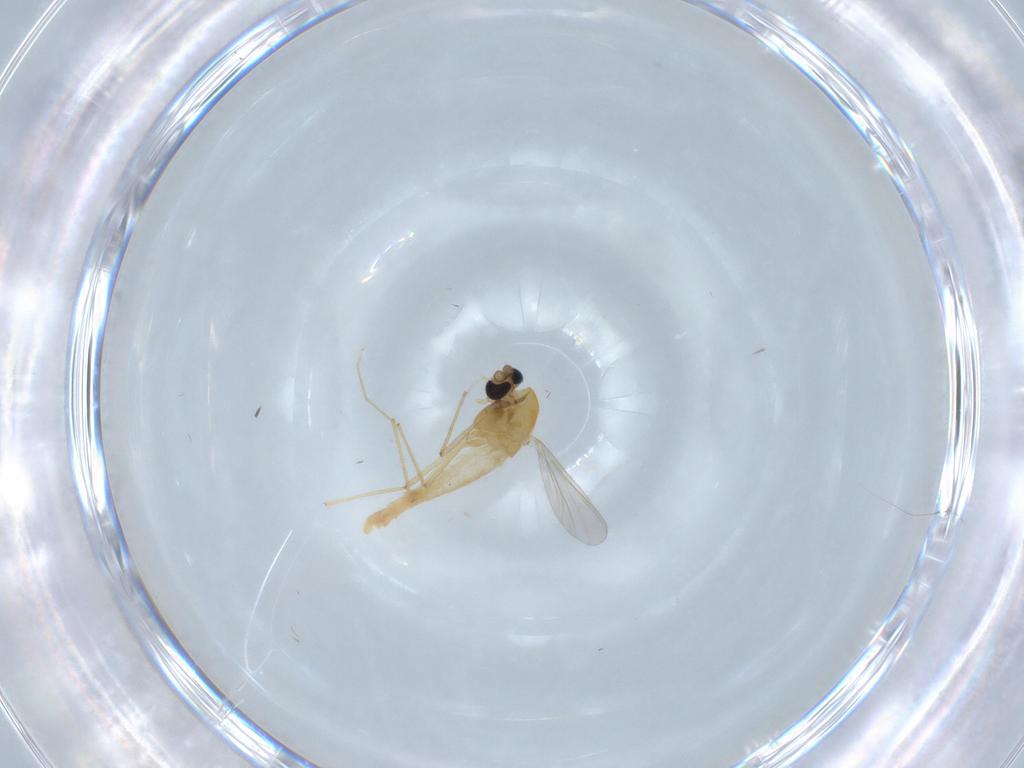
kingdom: Animalia
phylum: Arthropoda
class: Insecta
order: Diptera
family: Chironomidae
